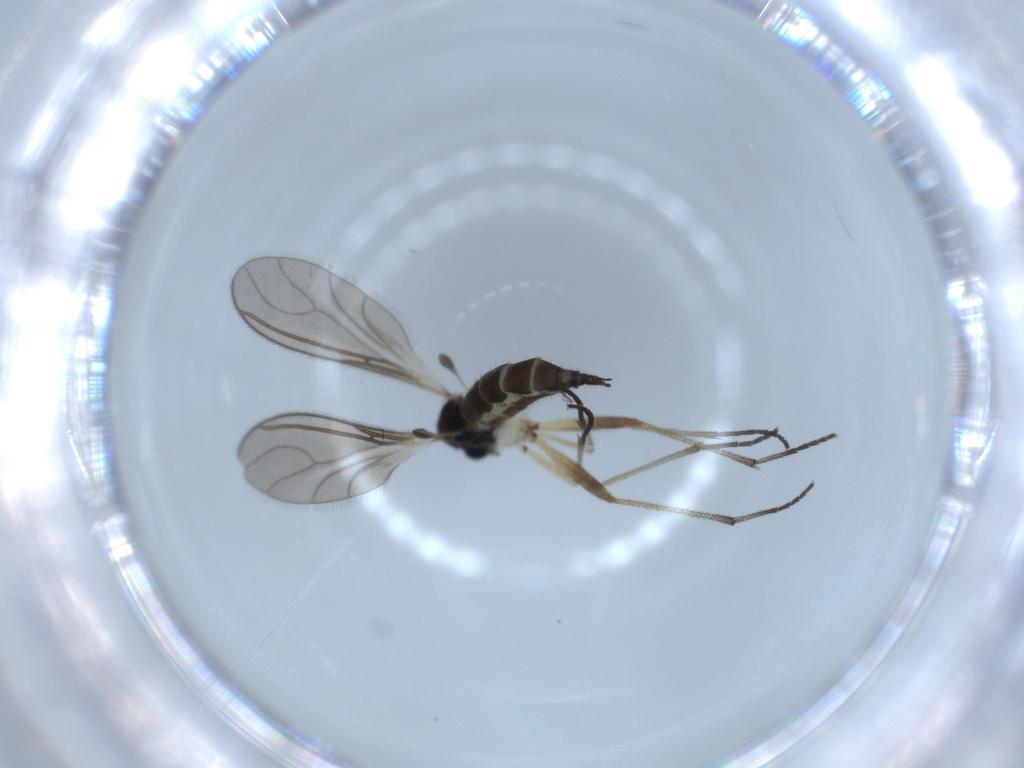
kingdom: Animalia
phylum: Arthropoda
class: Insecta
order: Diptera
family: Sciaridae
